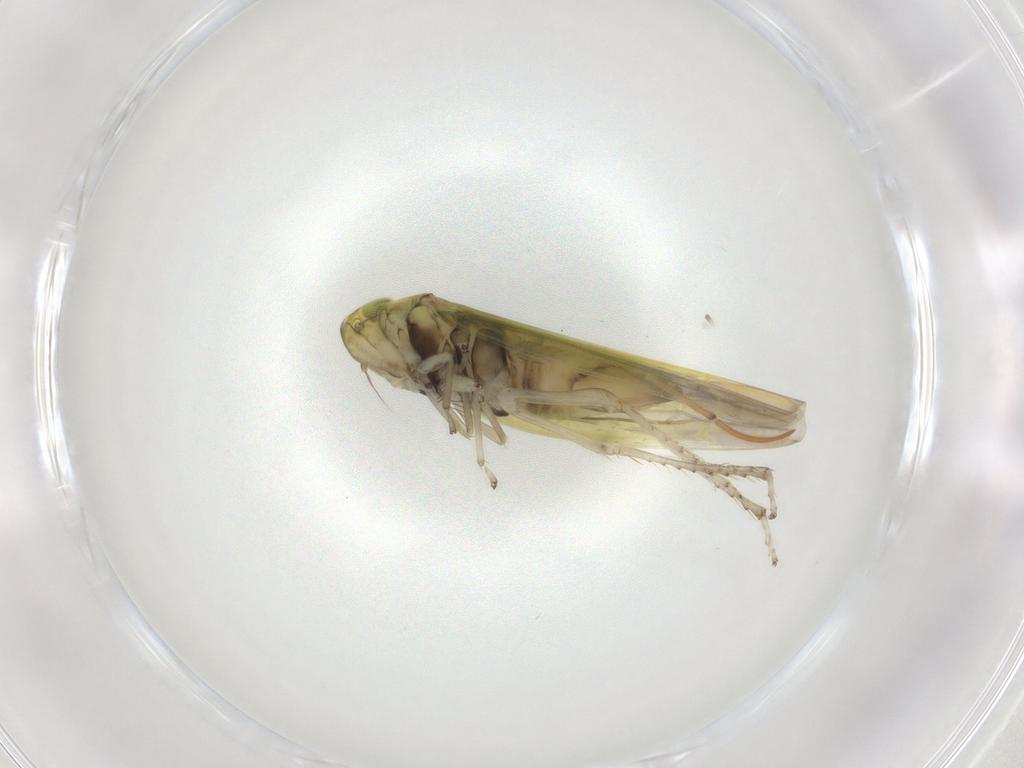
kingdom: Animalia
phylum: Arthropoda
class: Insecta
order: Hemiptera
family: Cicadellidae
